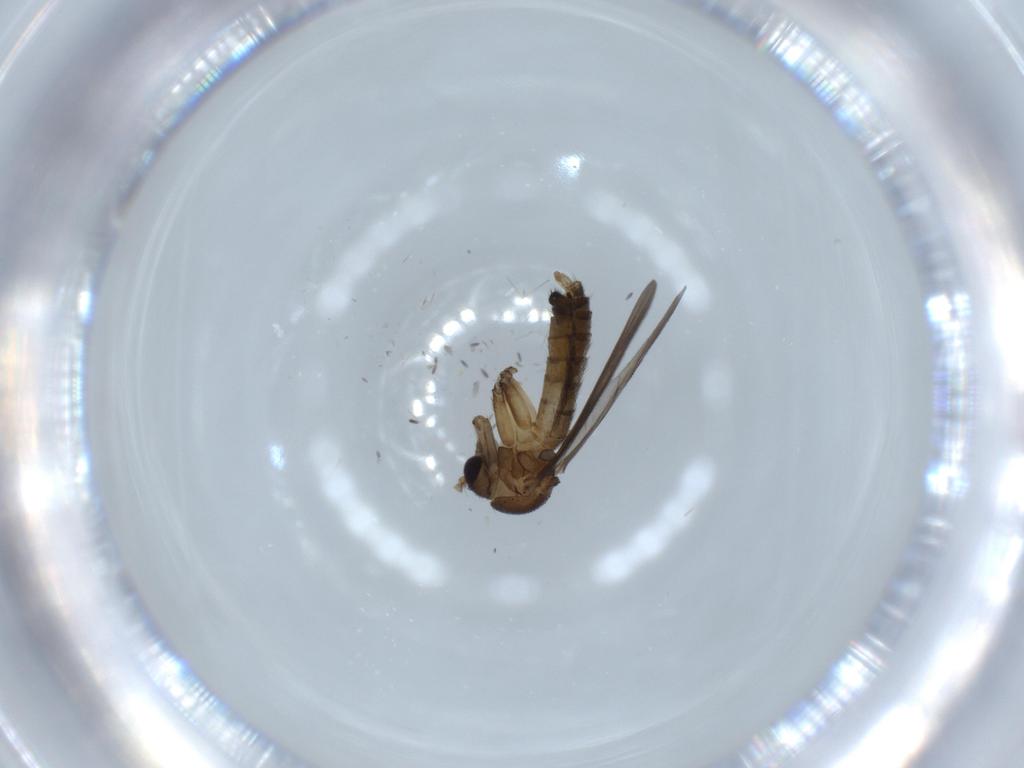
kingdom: Animalia
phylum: Arthropoda
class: Insecta
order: Diptera
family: Mycetophilidae
